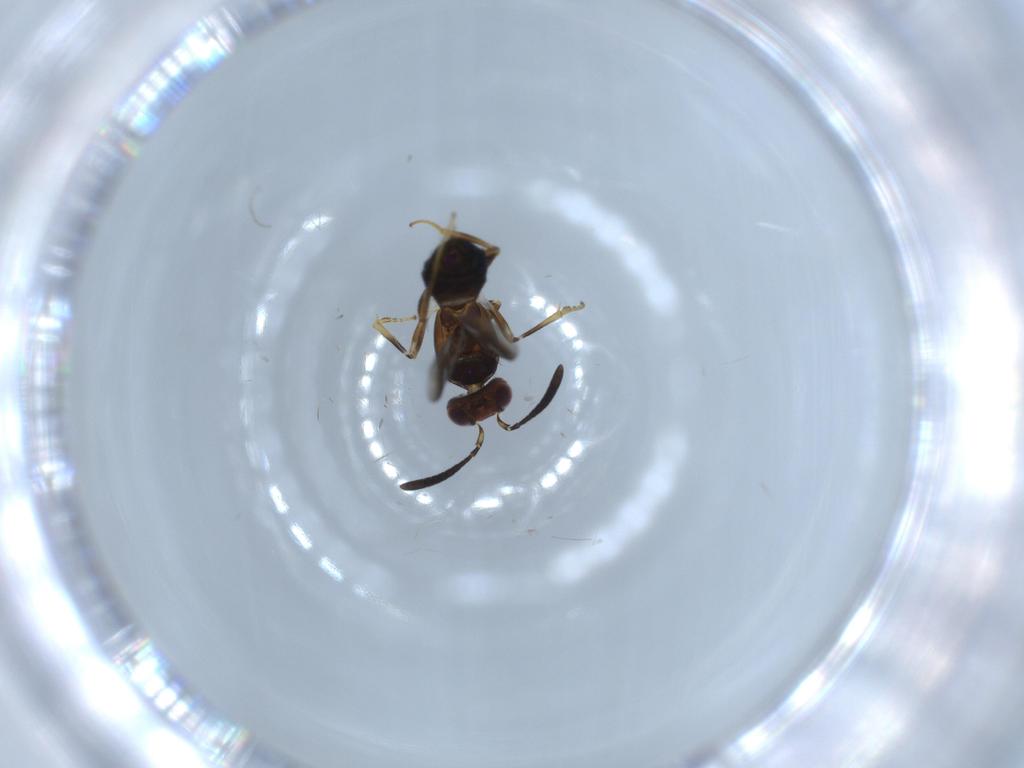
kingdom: Animalia
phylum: Arthropoda
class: Insecta
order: Hymenoptera
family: Eupelmidae
